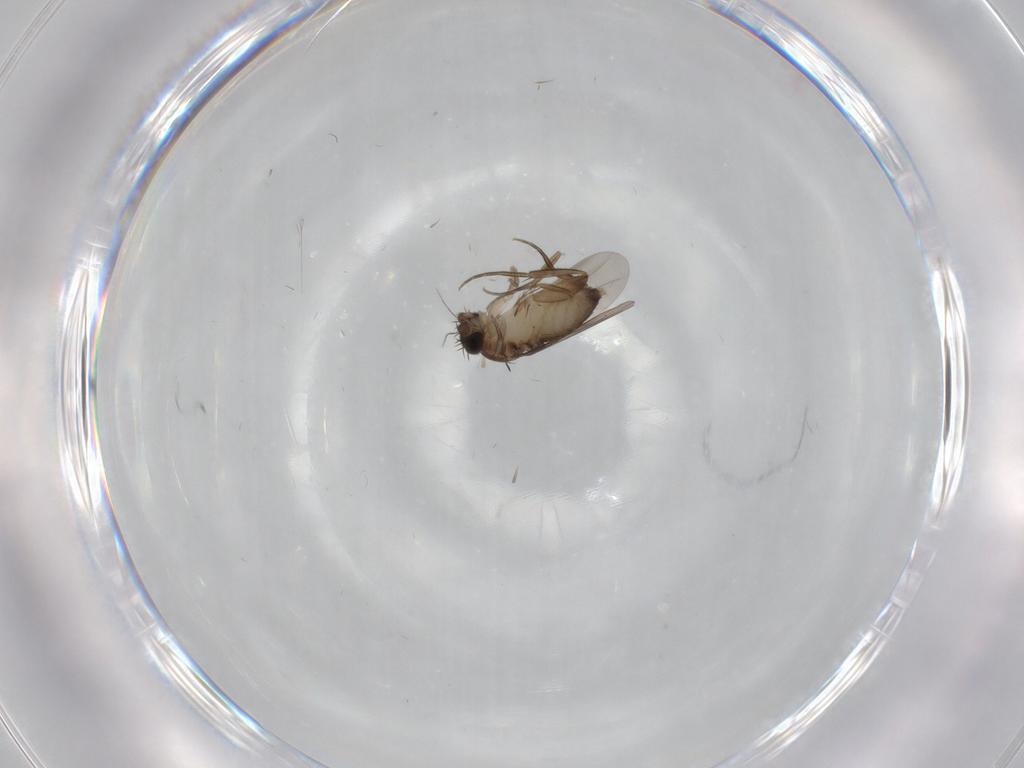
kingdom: Animalia
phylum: Arthropoda
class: Insecta
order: Diptera
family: Phoridae
